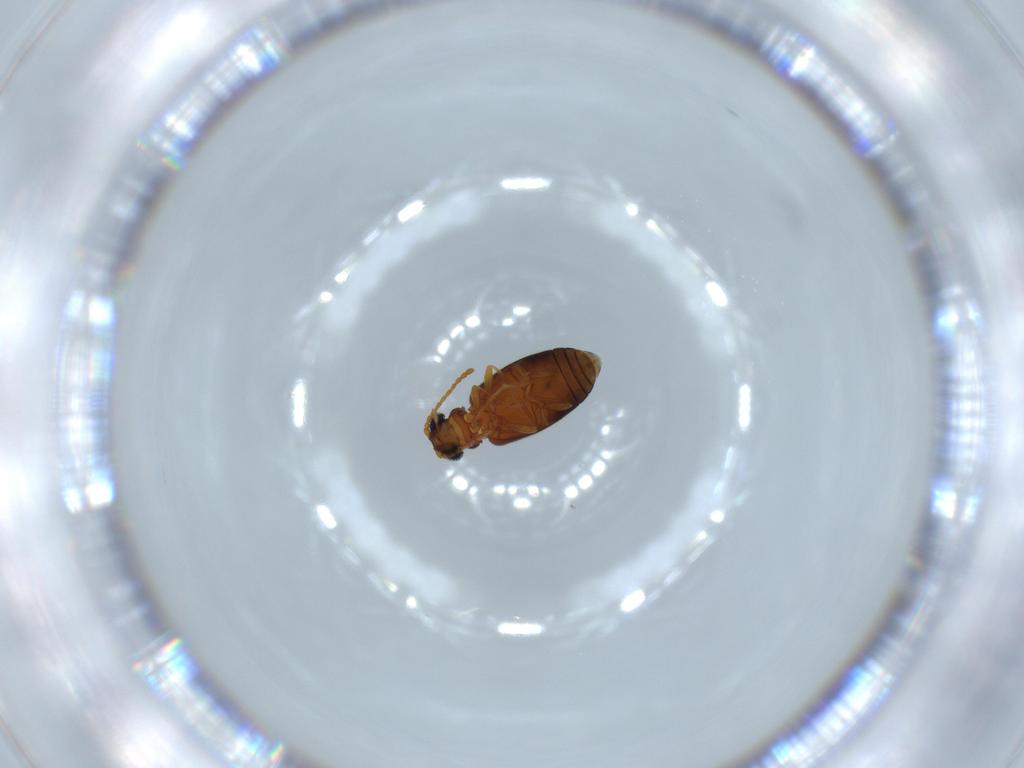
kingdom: Animalia
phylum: Arthropoda
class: Insecta
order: Coleoptera
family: Aderidae
